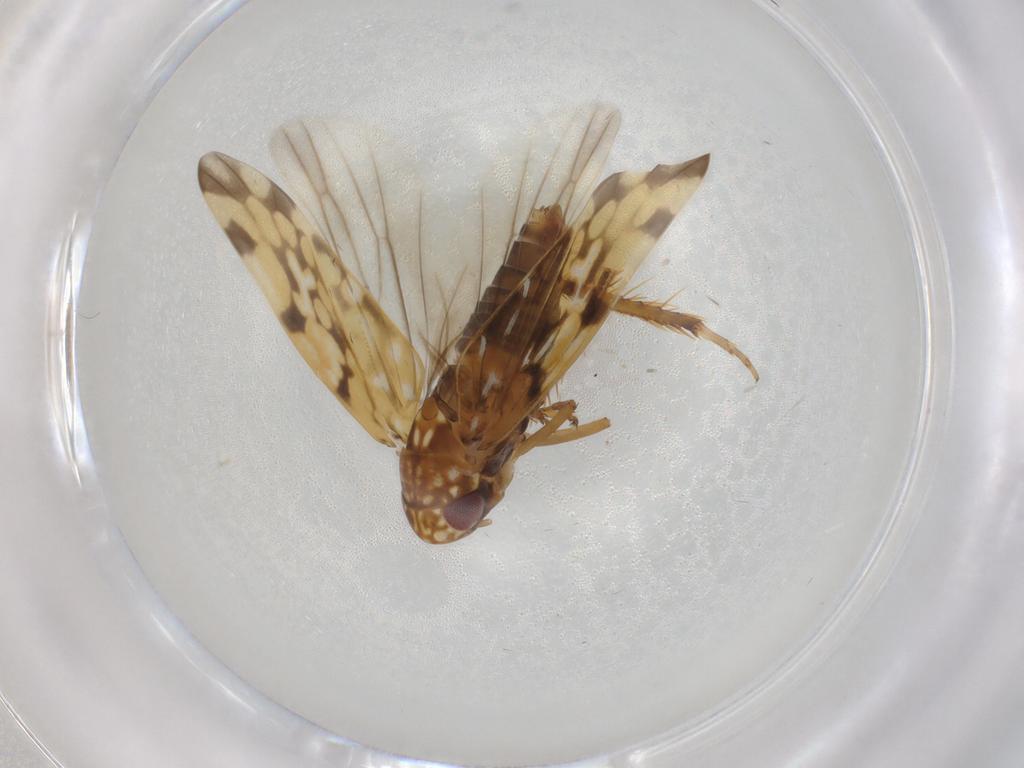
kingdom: Animalia
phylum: Arthropoda
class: Insecta
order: Hemiptera
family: Cicadellidae
